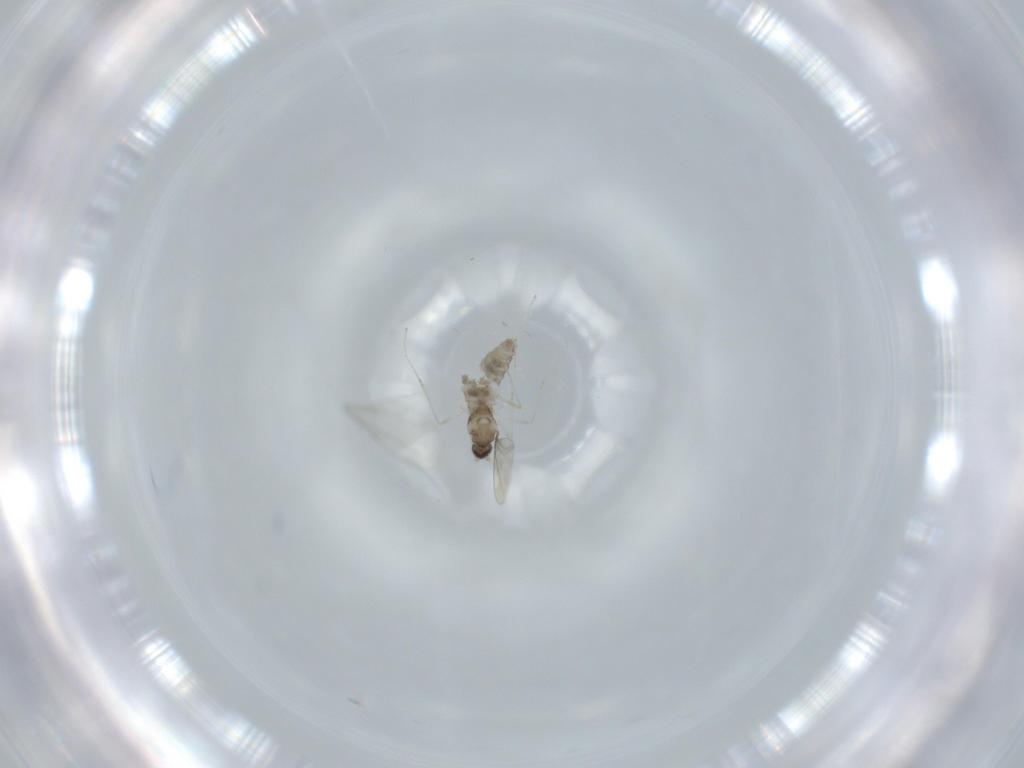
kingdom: Animalia
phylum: Arthropoda
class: Insecta
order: Diptera
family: Cecidomyiidae
